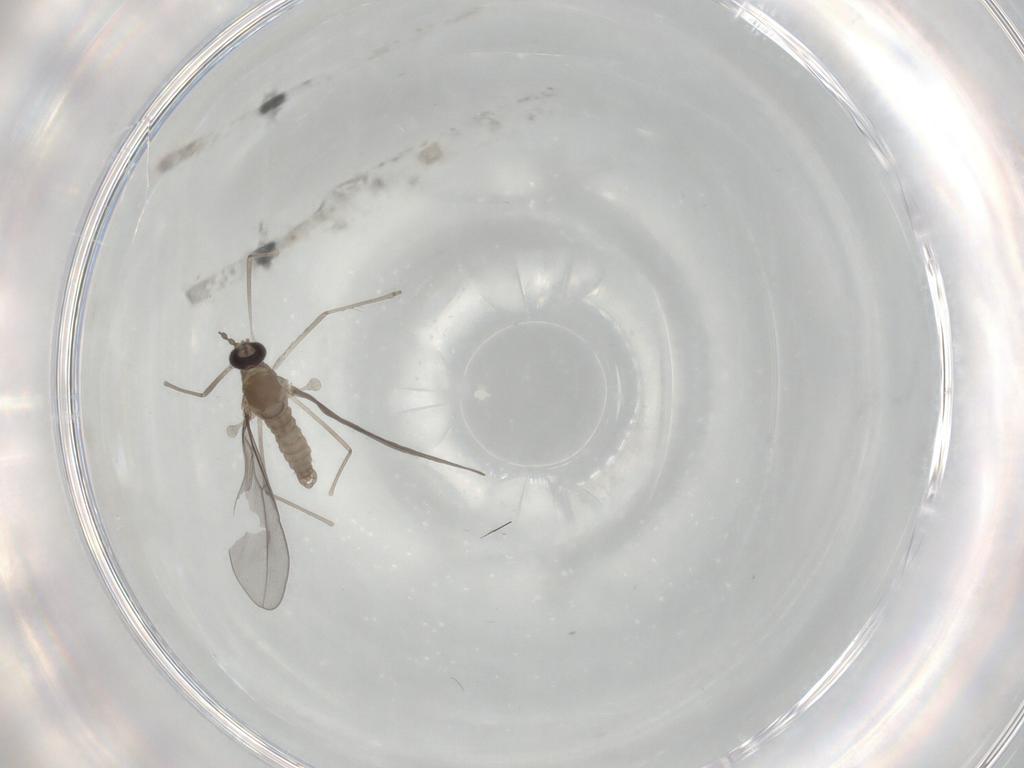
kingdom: Animalia
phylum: Arthropoda
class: Insecta
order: Diptera
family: Cecidomyiidae
